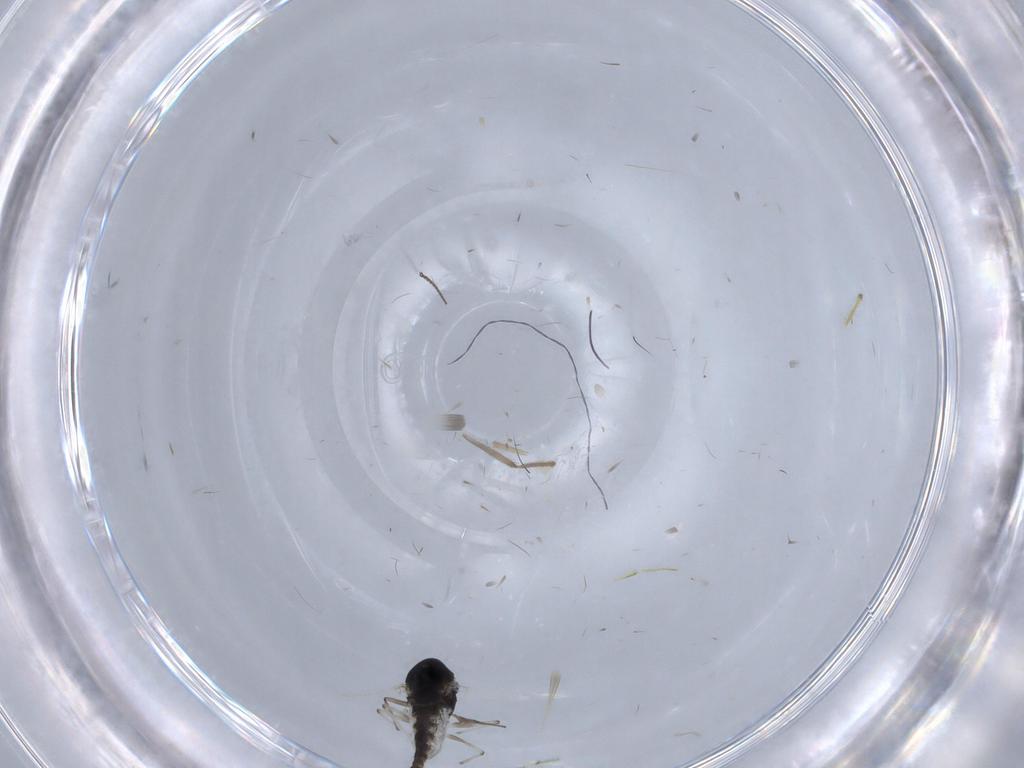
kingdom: Animalia
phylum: Arthropoda
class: Insecta
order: Diptera
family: Chironomidae
